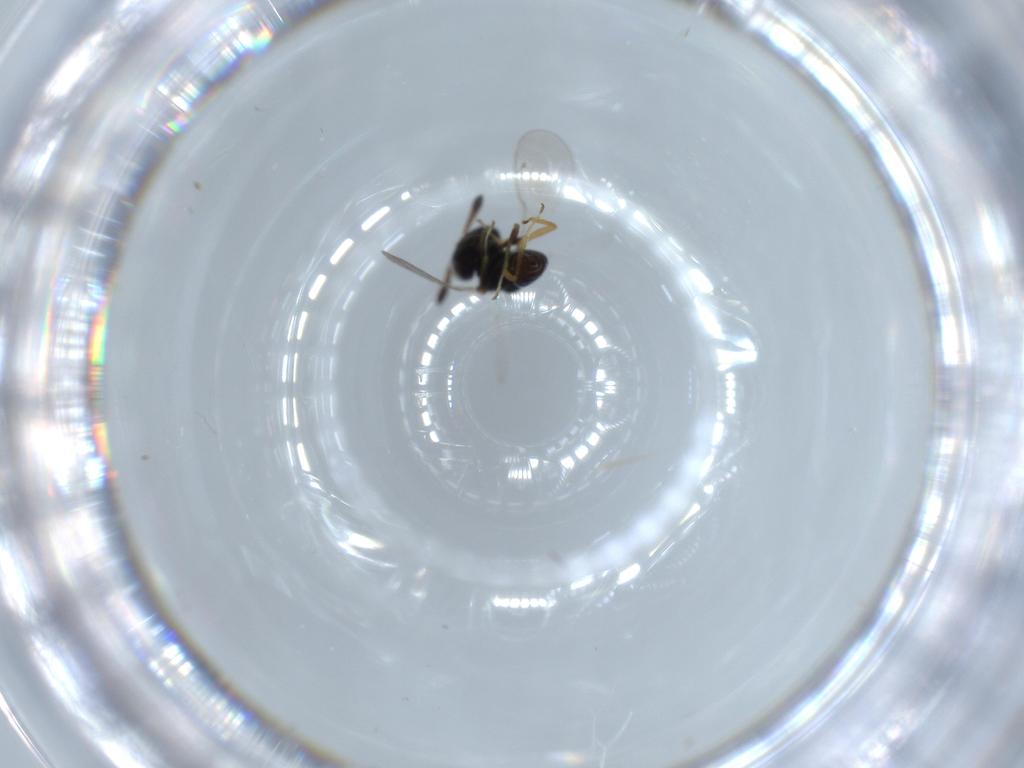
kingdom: Animalia
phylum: Arthropoda
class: Insecta
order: Hymenoptera
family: Pteromalidae
